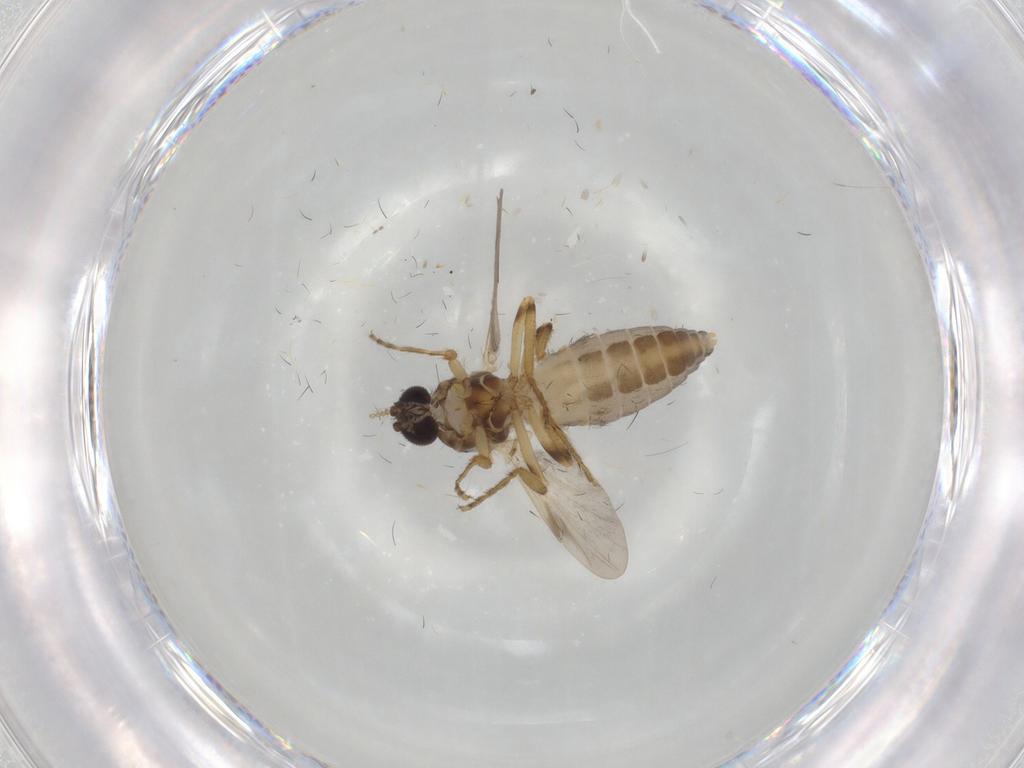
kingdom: Animalia
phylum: Arthropoda
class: Insecta
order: Diptera
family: Ceratopogonidae
